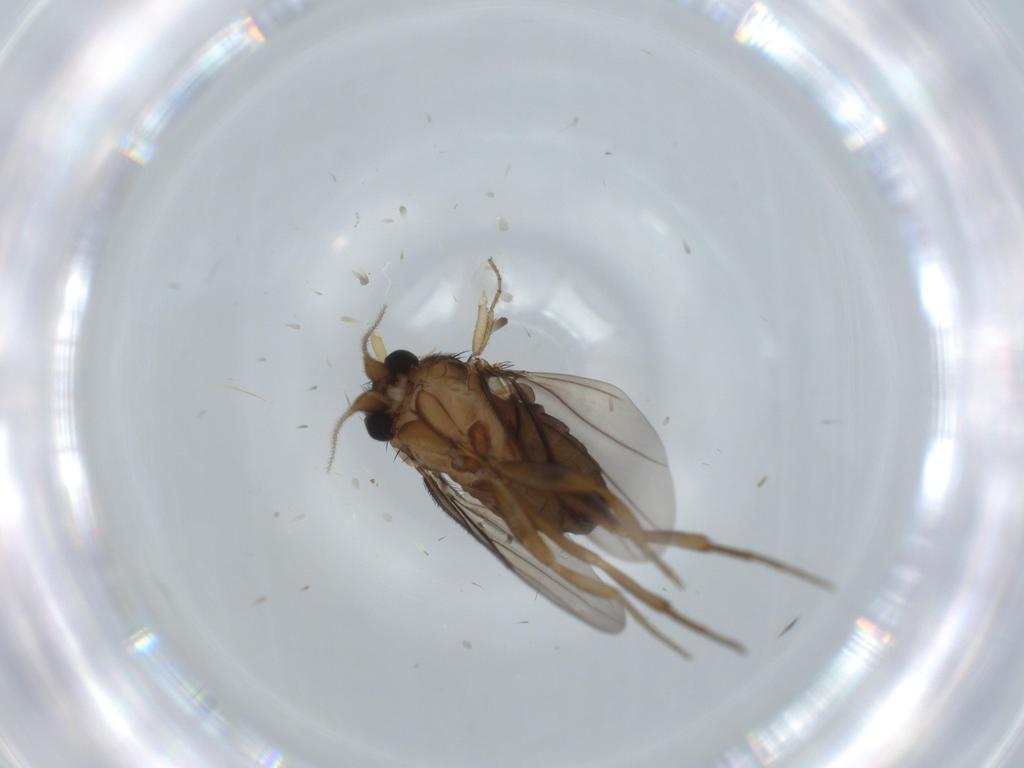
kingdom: Animalia
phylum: Arthropoda
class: Insecta
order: Diptera
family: Sphaeroceridae
